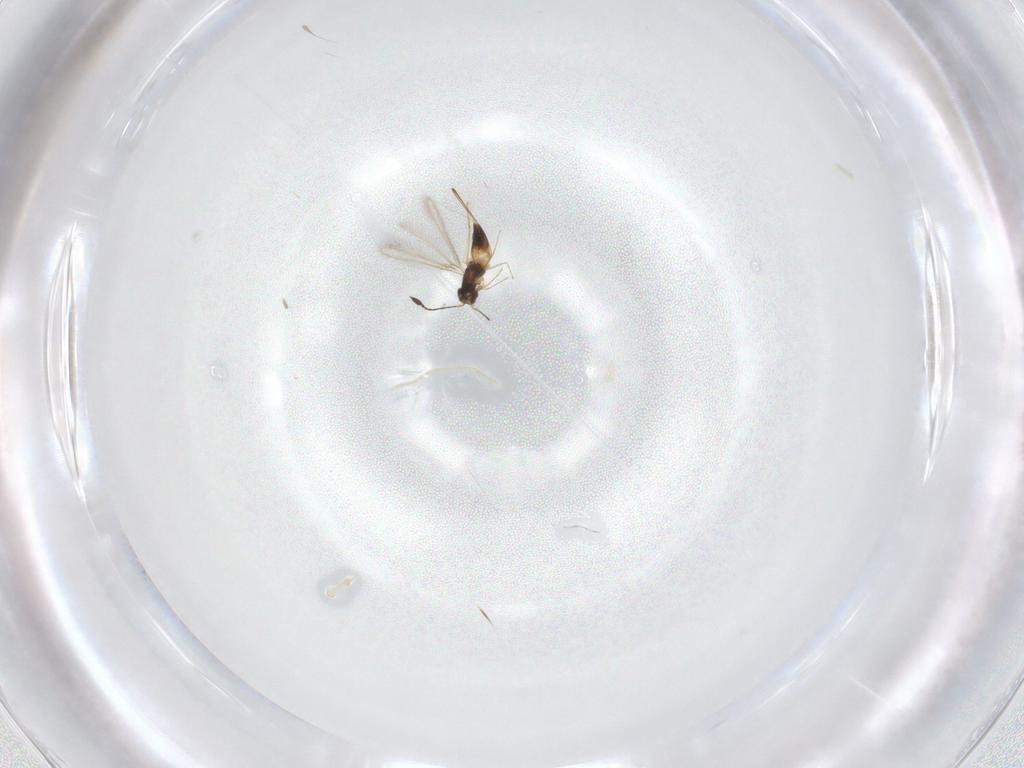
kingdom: Animalia
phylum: Arthropoda
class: Insecta
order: Hymenoptera
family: Mymaridae
